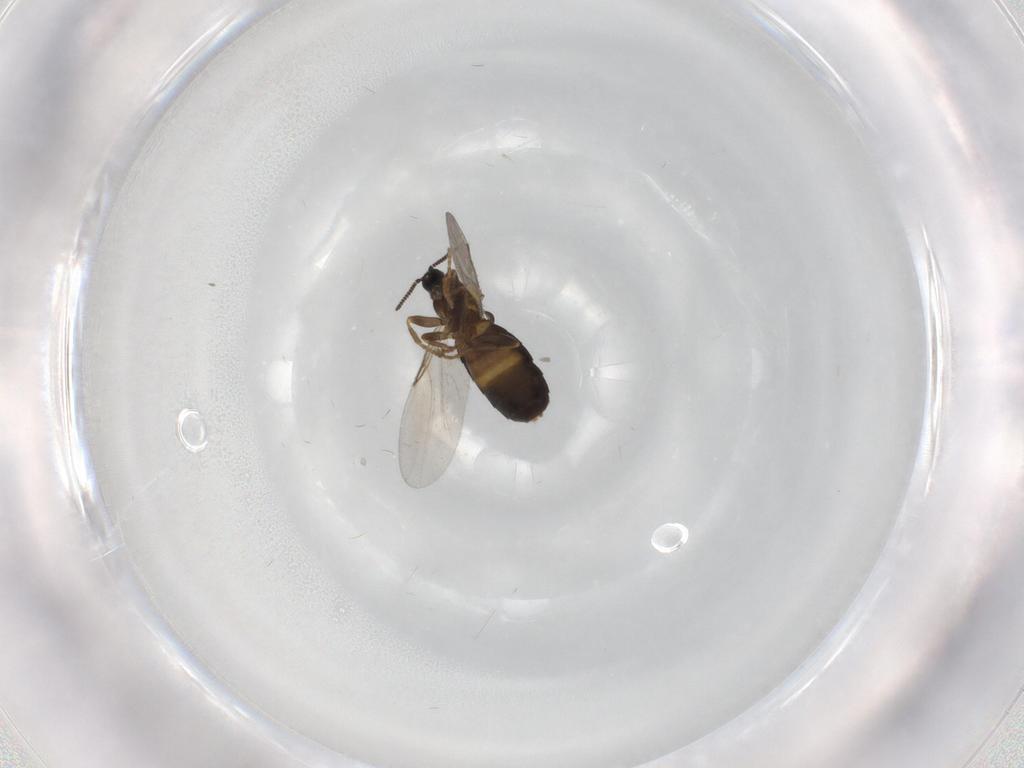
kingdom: Animalia
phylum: Arthropoda
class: Insecta
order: Diptera
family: Scatopsidae
